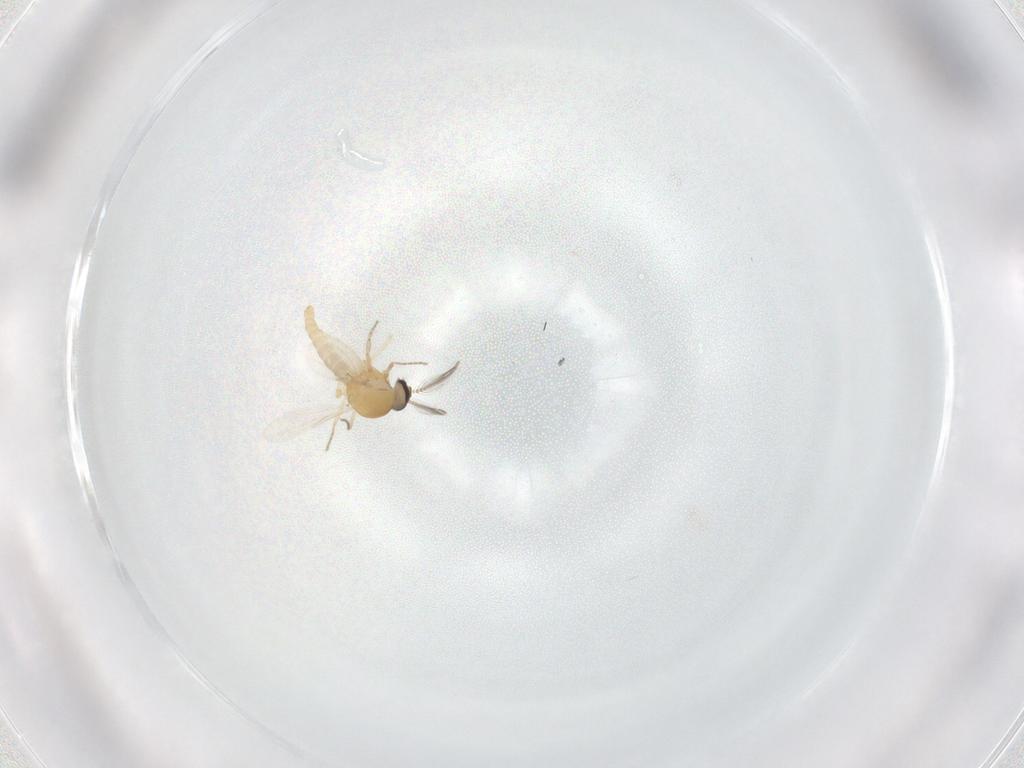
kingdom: Animalia
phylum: Arthropoda
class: Insecta
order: Diptera
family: Ceratopogonidae
